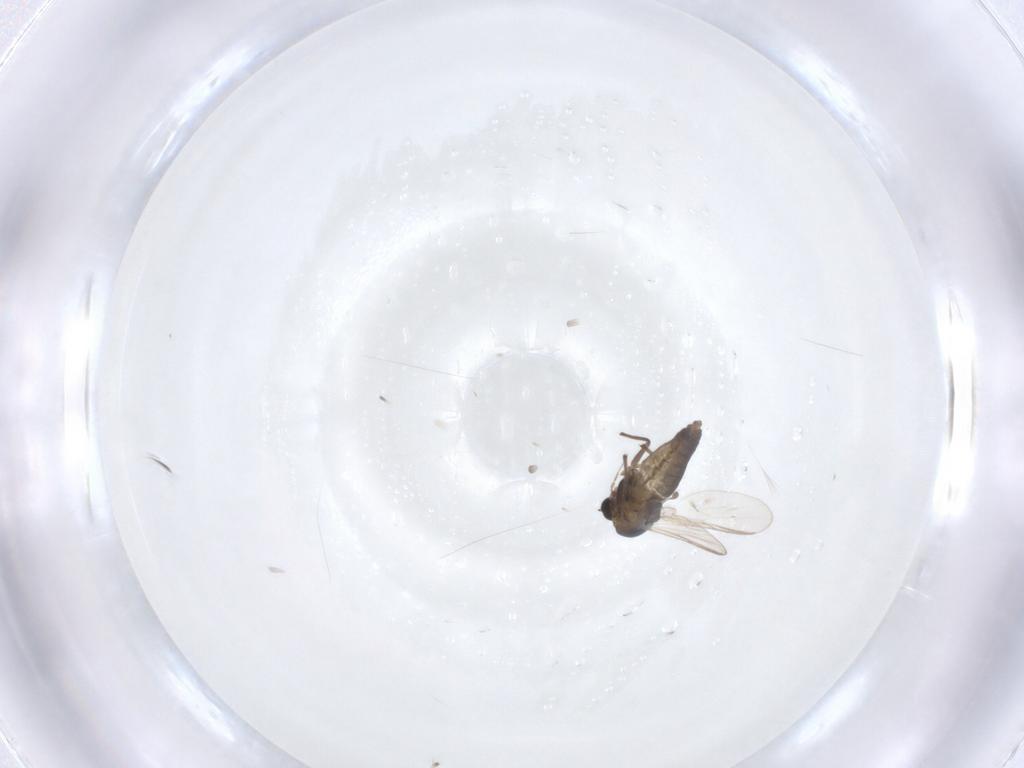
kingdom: Animalia
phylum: Arthropoda
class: Insecta
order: Diptera
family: Chironomidae
